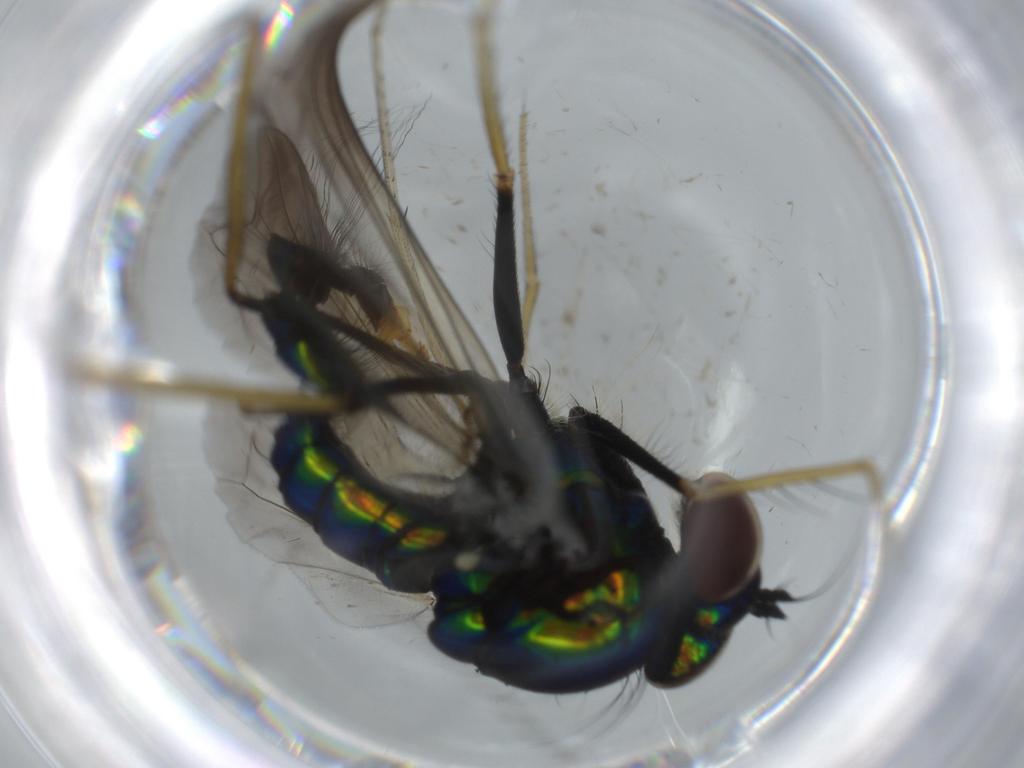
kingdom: Animalia
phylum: Arthropoda
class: Insecta
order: Diptera
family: Dolichopodidae
